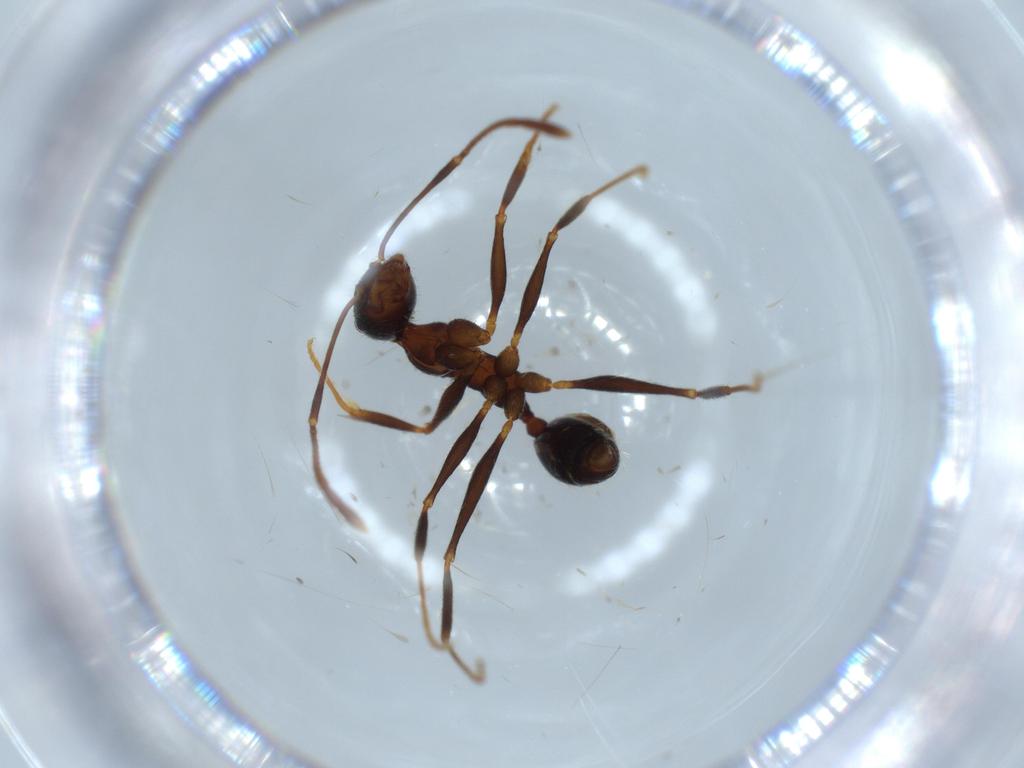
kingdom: Animalia
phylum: Arthropoda
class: Insecta
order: Hymenoptera
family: Formicidae
